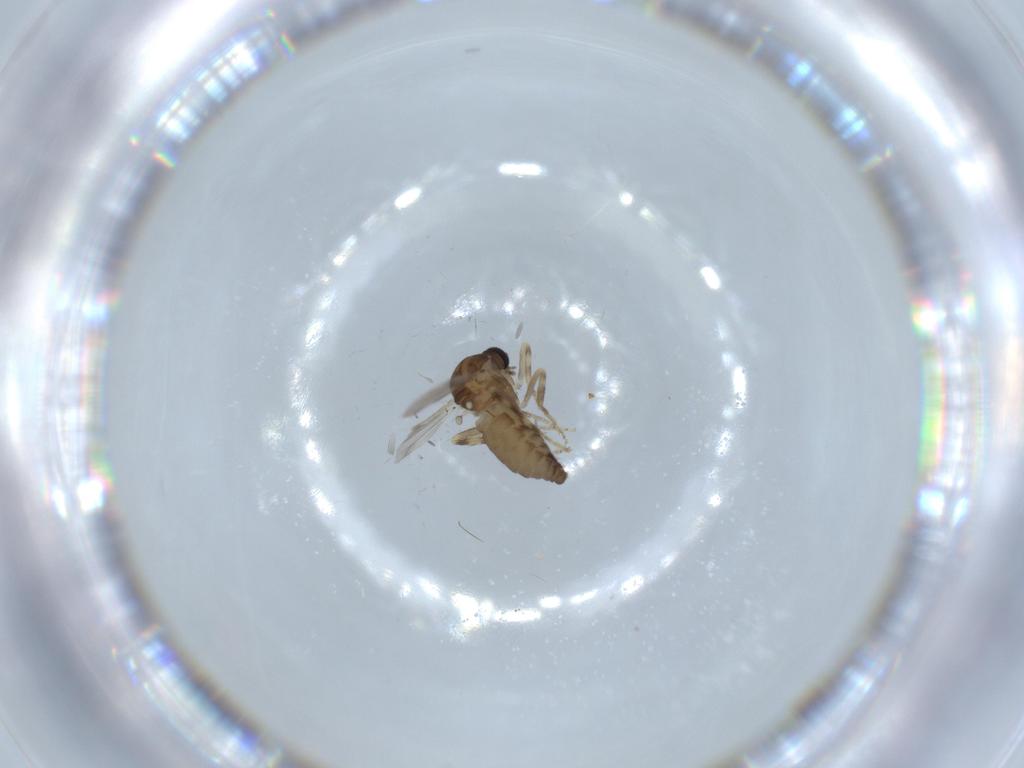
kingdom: Animalia
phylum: Arthropoda
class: Insecta
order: Diptera
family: Ceratopogonidae
